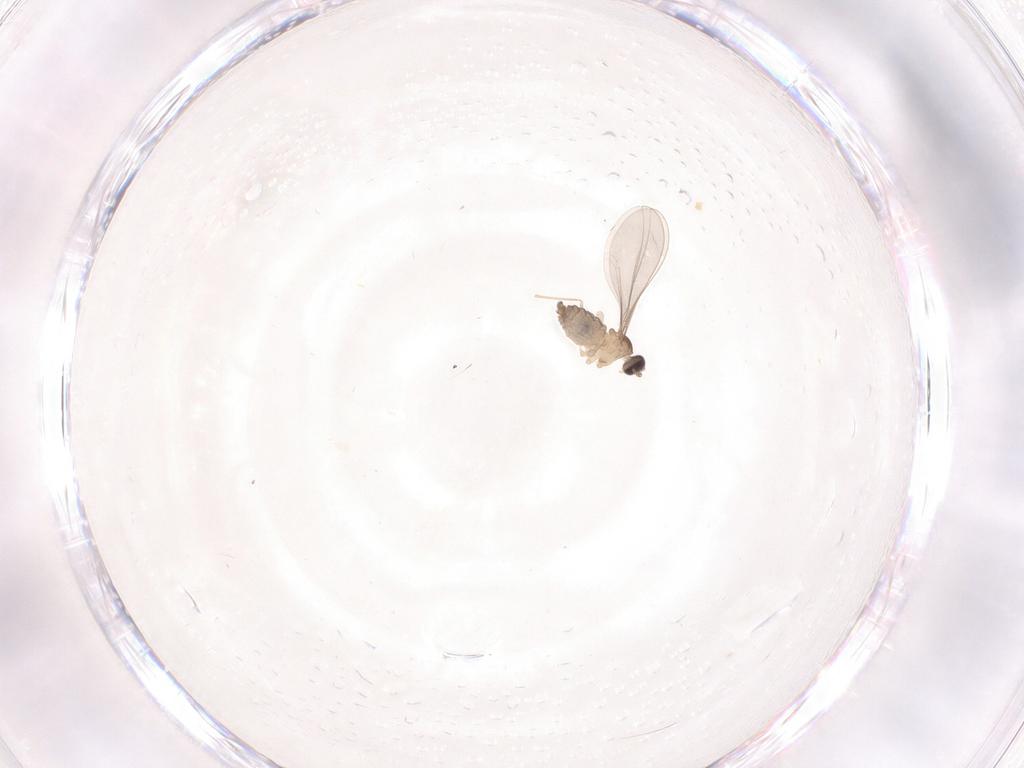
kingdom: Animalia
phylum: Arthropoda
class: Insecta
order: Diptera
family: Cecidomyiidae
